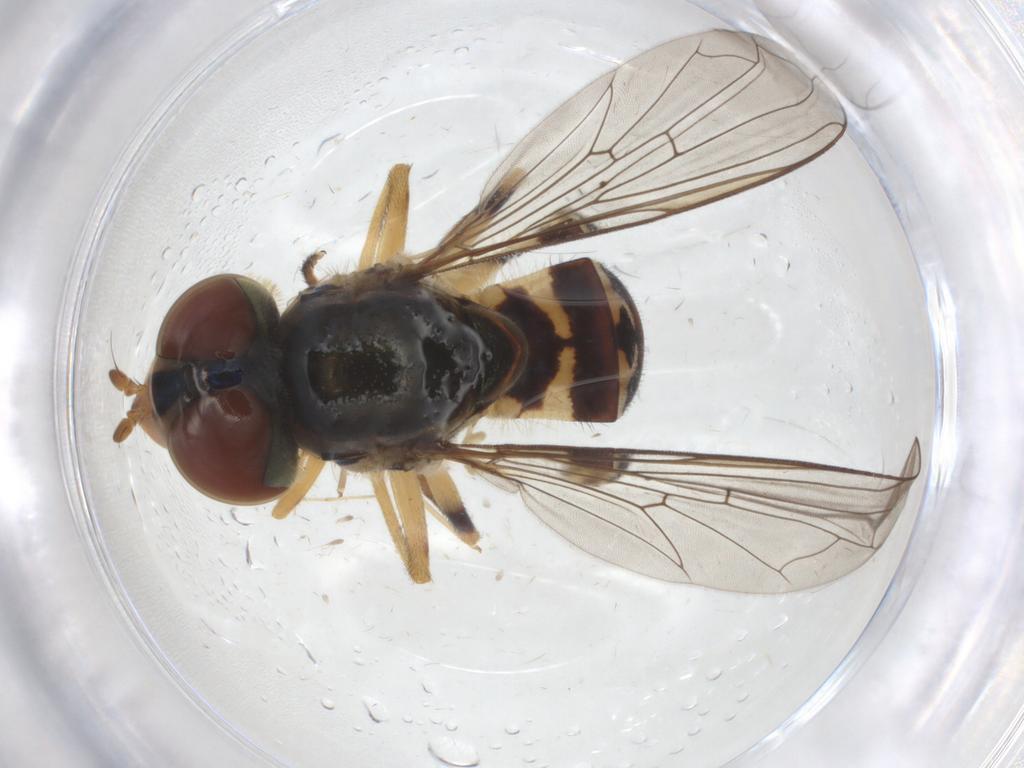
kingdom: Animalia
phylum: Arthropoda
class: Insecta
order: Diptera
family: Syrphidae
